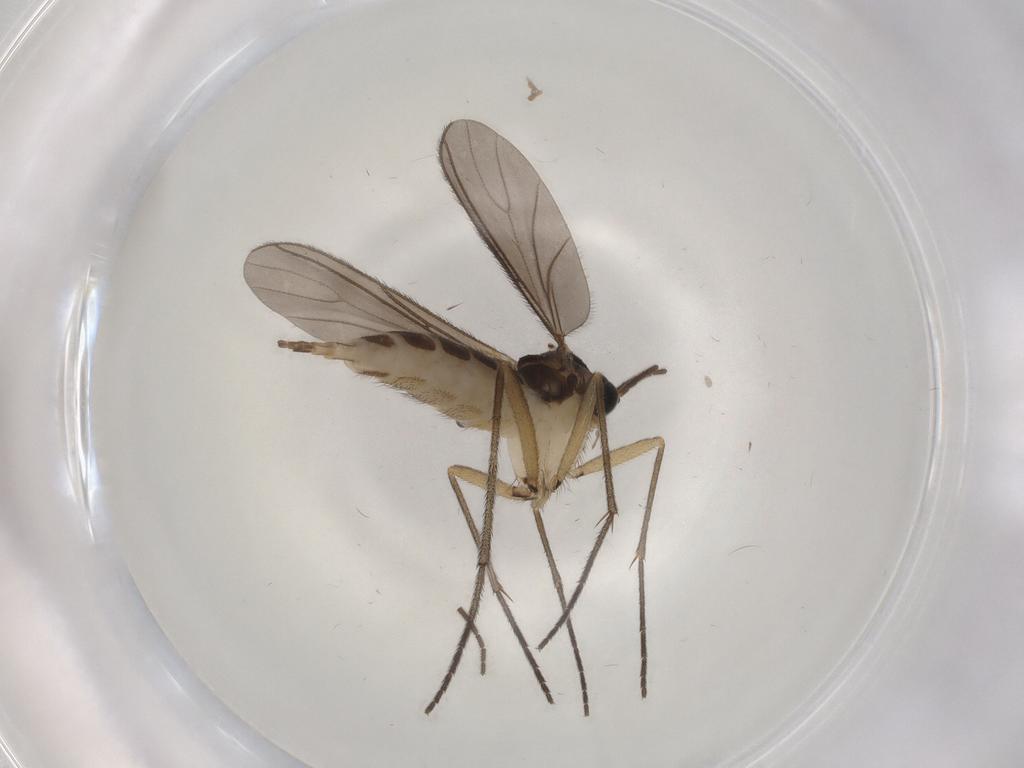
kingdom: Animalia
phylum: Arthropoda
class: Insecta
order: Diptera
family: Sciaridae
